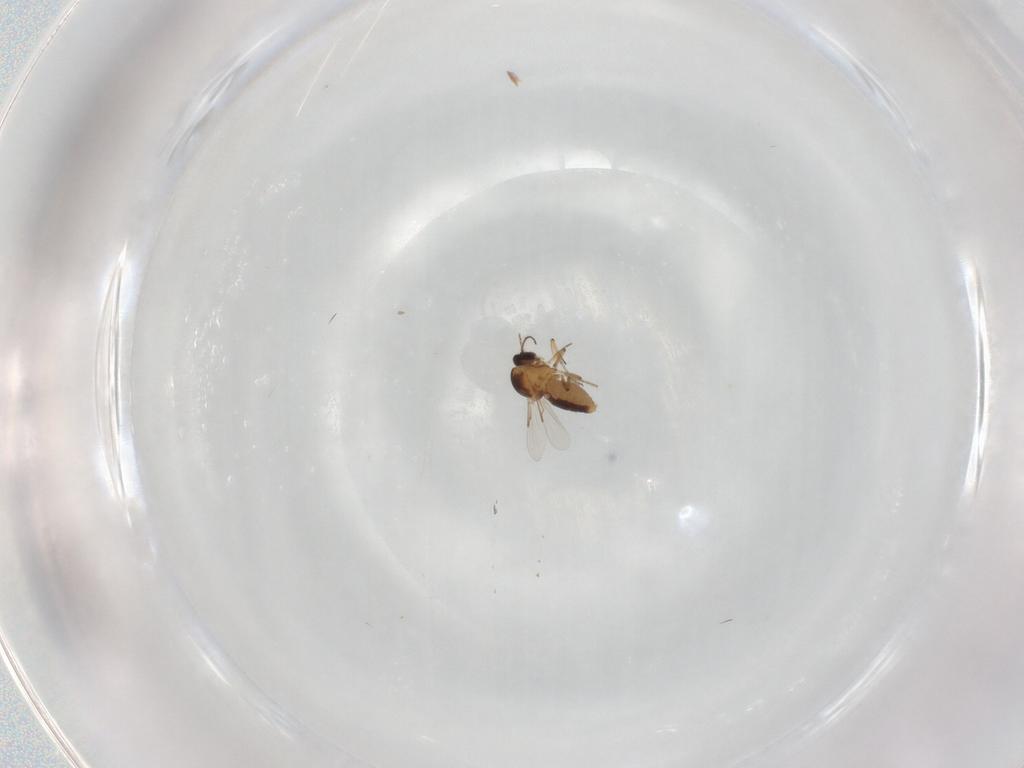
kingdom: Animalia
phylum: Arthropoda
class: Insecta
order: Diptera
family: Ceratopogonidae
